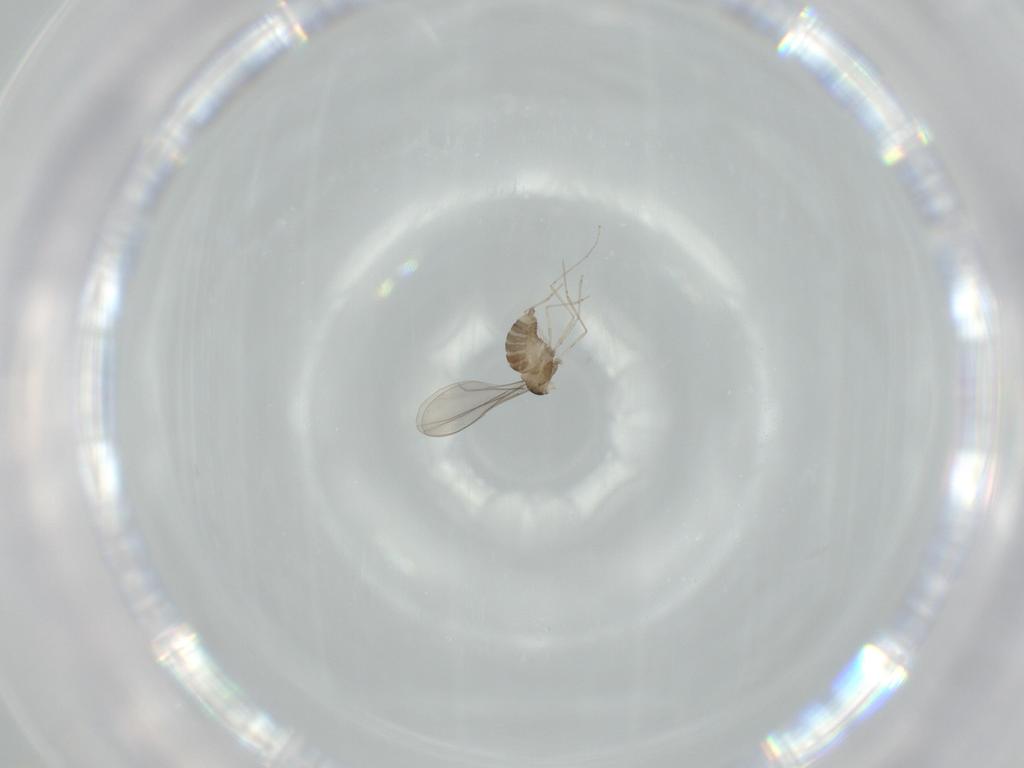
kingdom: Animalia
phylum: Arthropoda
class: Insecta
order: Diptera
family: Cecidomyiidae
